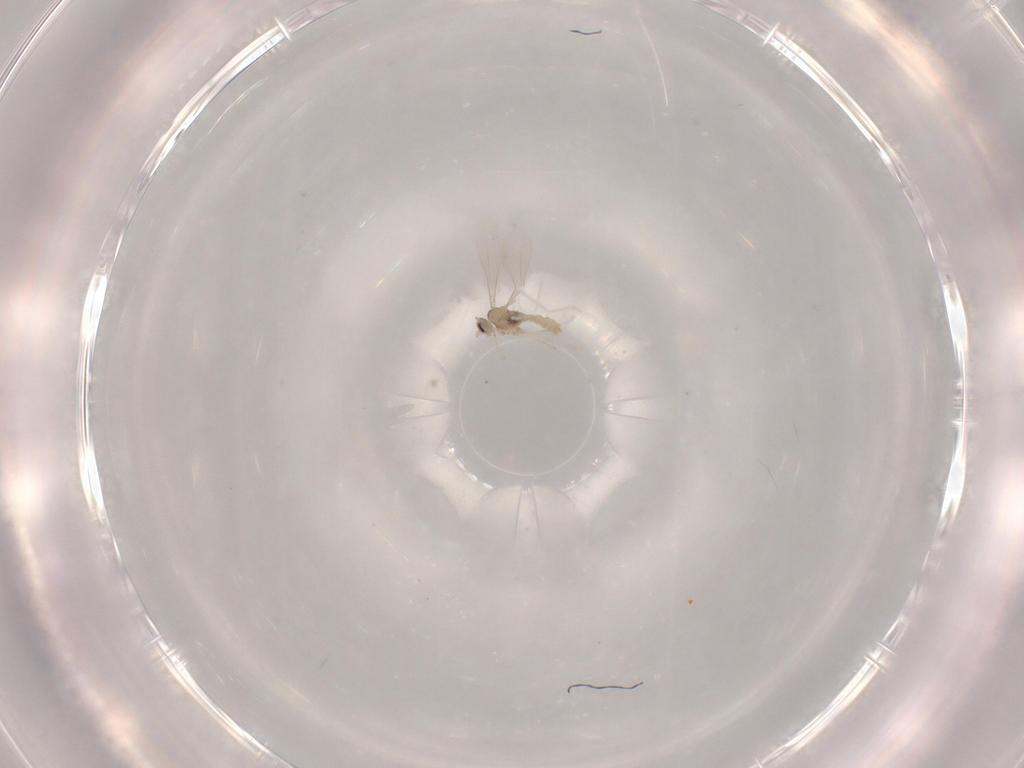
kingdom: Animalia
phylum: Arthropoda
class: Insecta
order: Diptera
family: Cecidomyiidae
